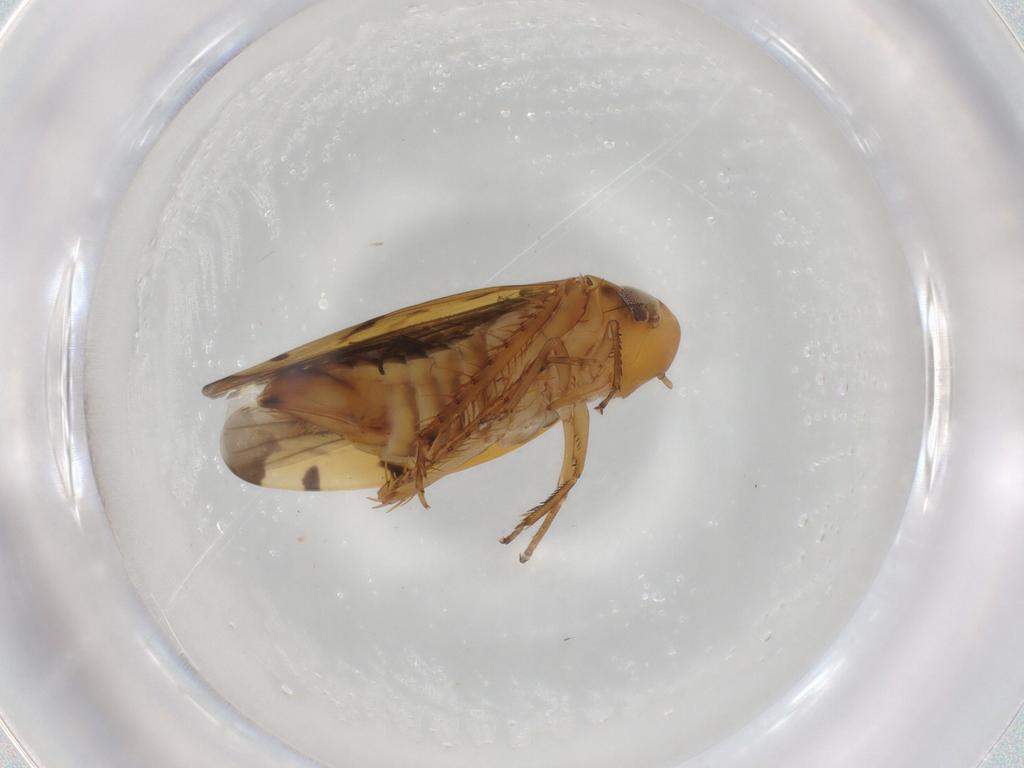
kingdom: Animalia
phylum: Arthropoda
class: Insecta
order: Hemiptera
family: Cicadellidae
